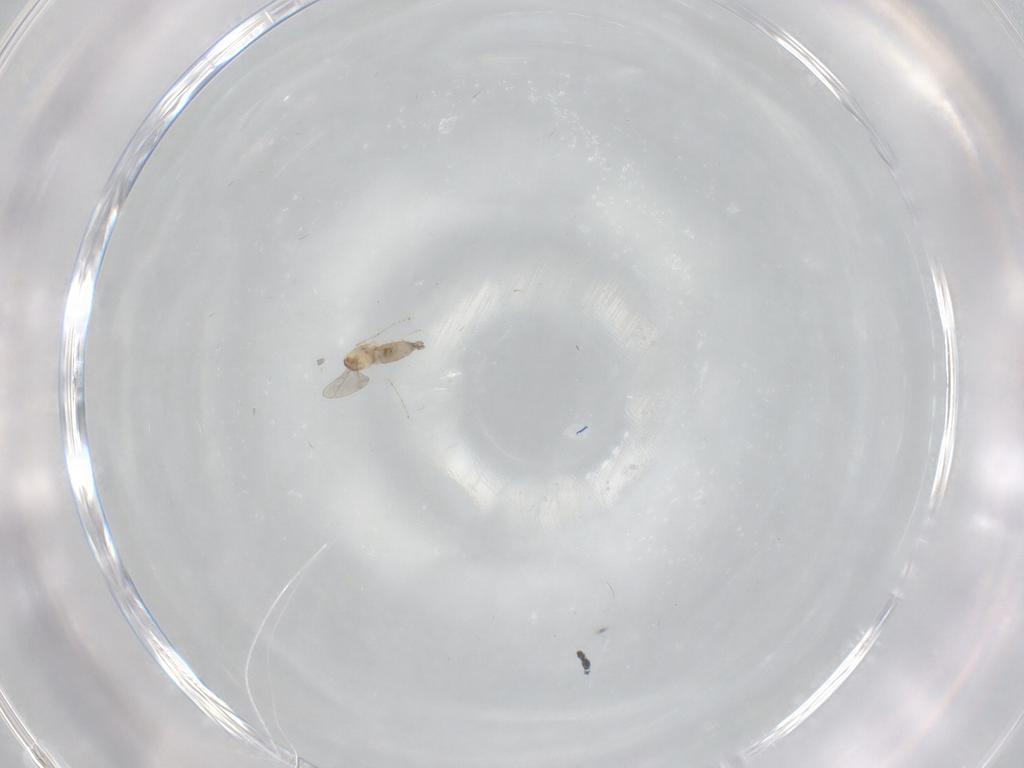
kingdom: Animalia
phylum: Arthropoda
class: Insecta
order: Diptera
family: Cecidomyiidae
